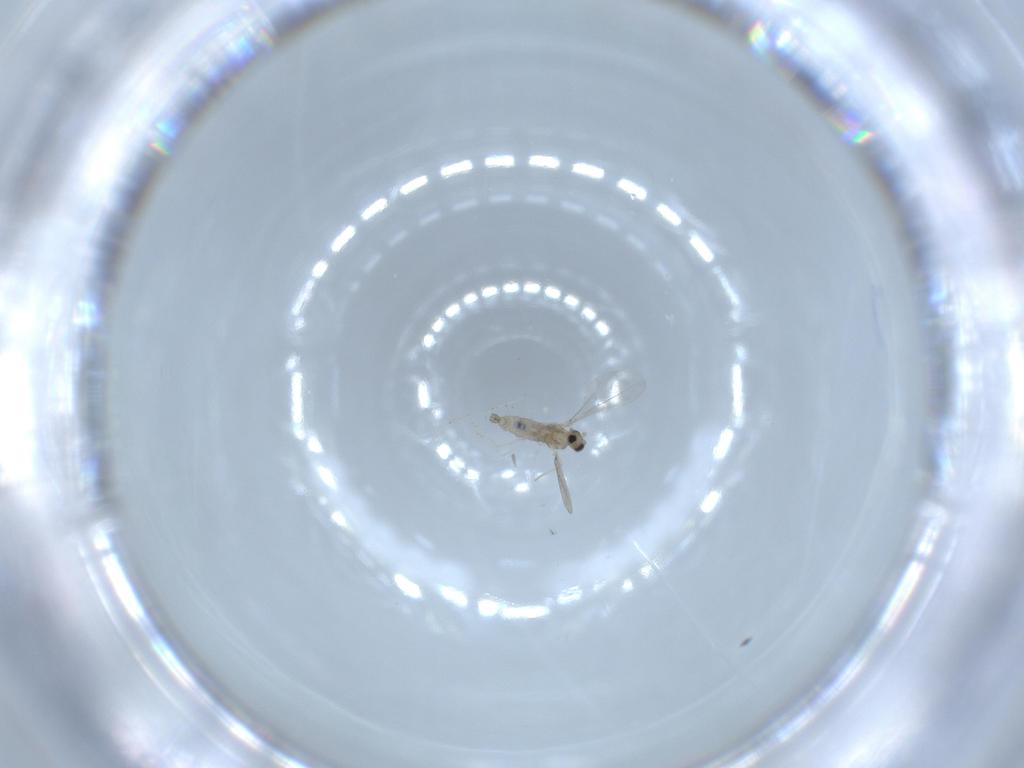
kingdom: Animalia
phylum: Arthropoda
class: Insecta
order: Diptera
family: Cecidomyiidae
